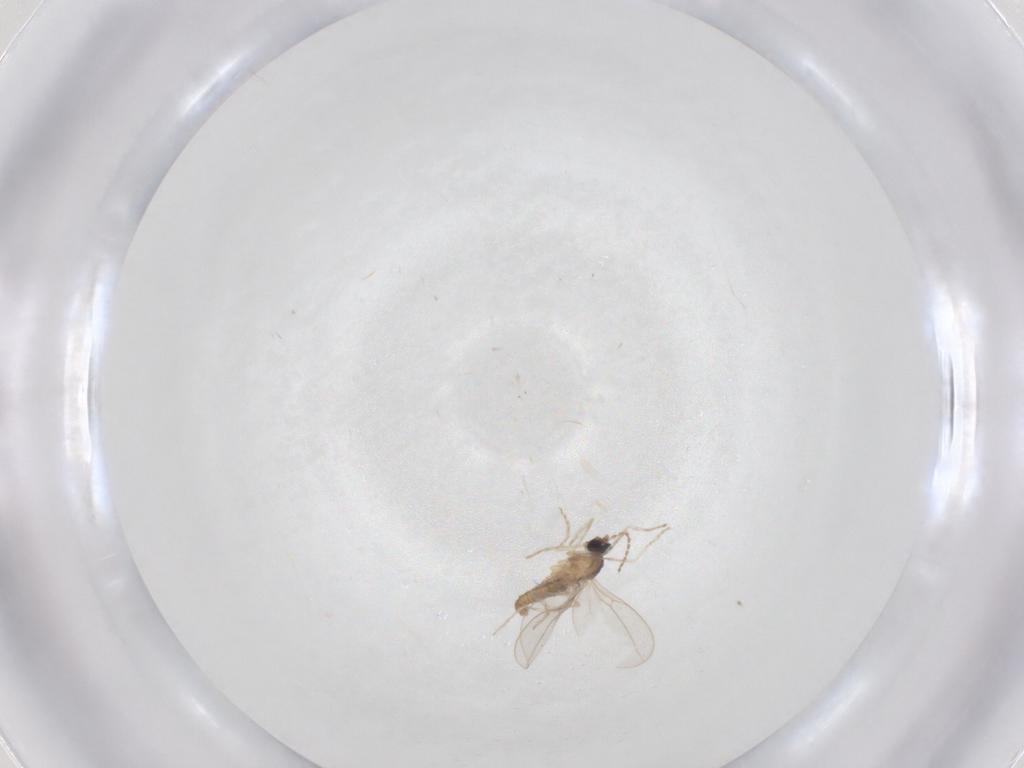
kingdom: Animalia
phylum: Arthropoda
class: Insecta
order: Diptera
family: Cecidomyiidae
